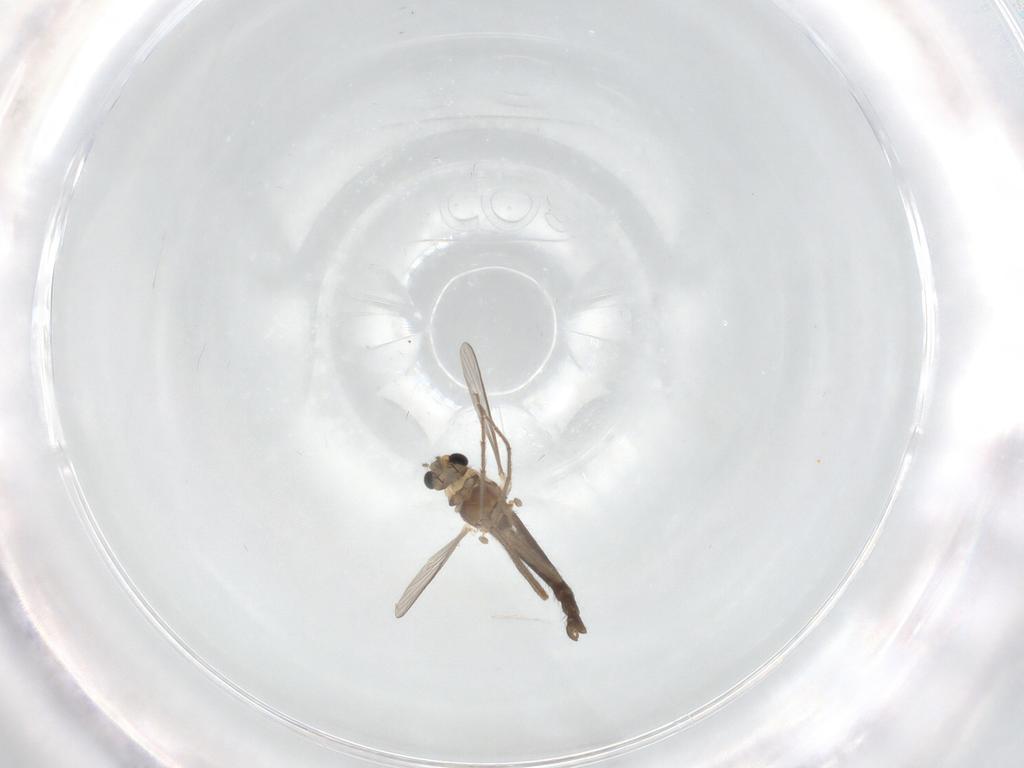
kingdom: Animalia
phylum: Arthropoda
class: Insecta
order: Diptera
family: Chironomidae
